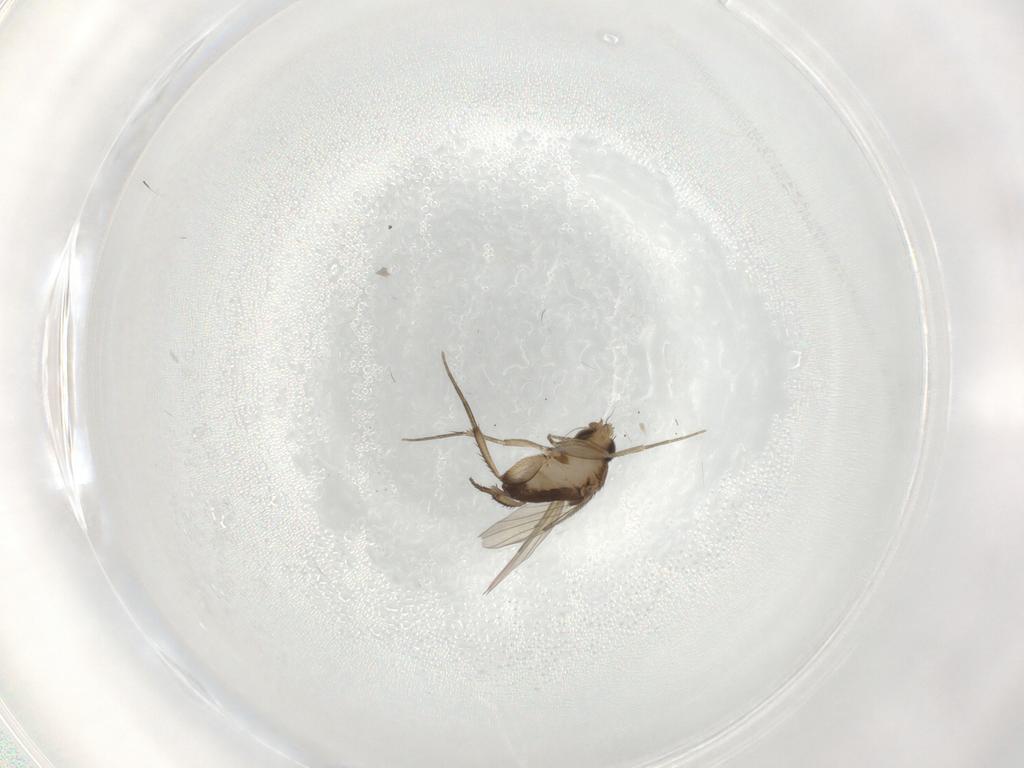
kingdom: Animalia
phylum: Arthropoda
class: Insecta
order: Diptera
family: Phoridae
